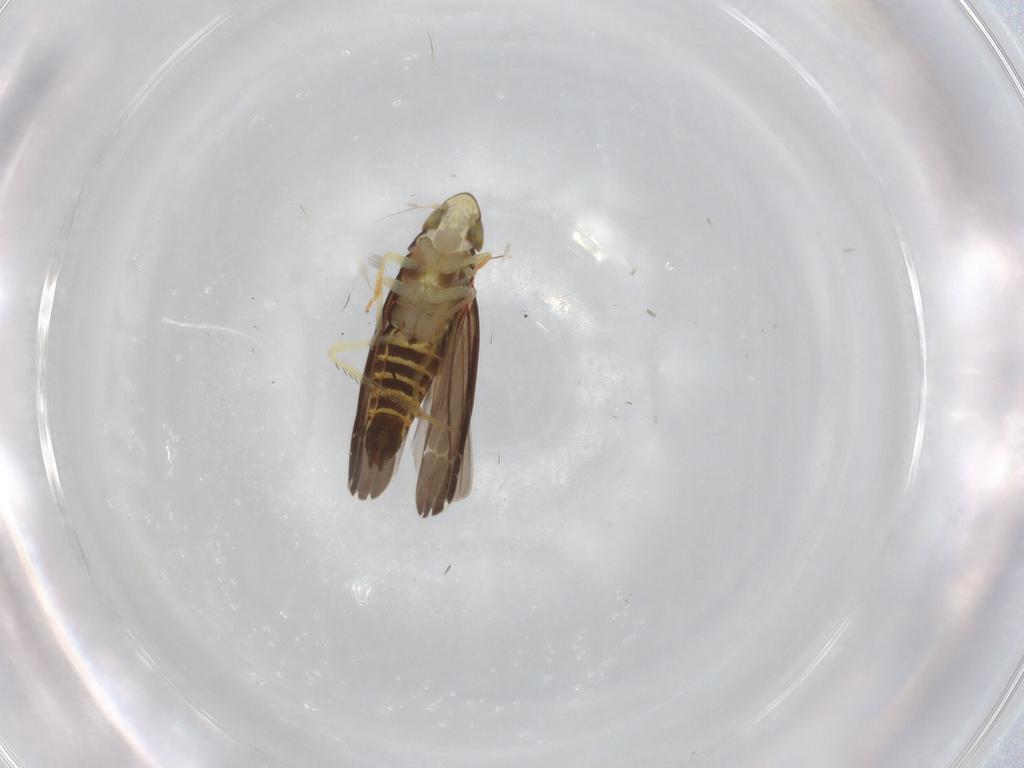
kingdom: Animalia
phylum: Arthropoda
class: Insecta
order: Hemiptera
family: Cicadellidae
